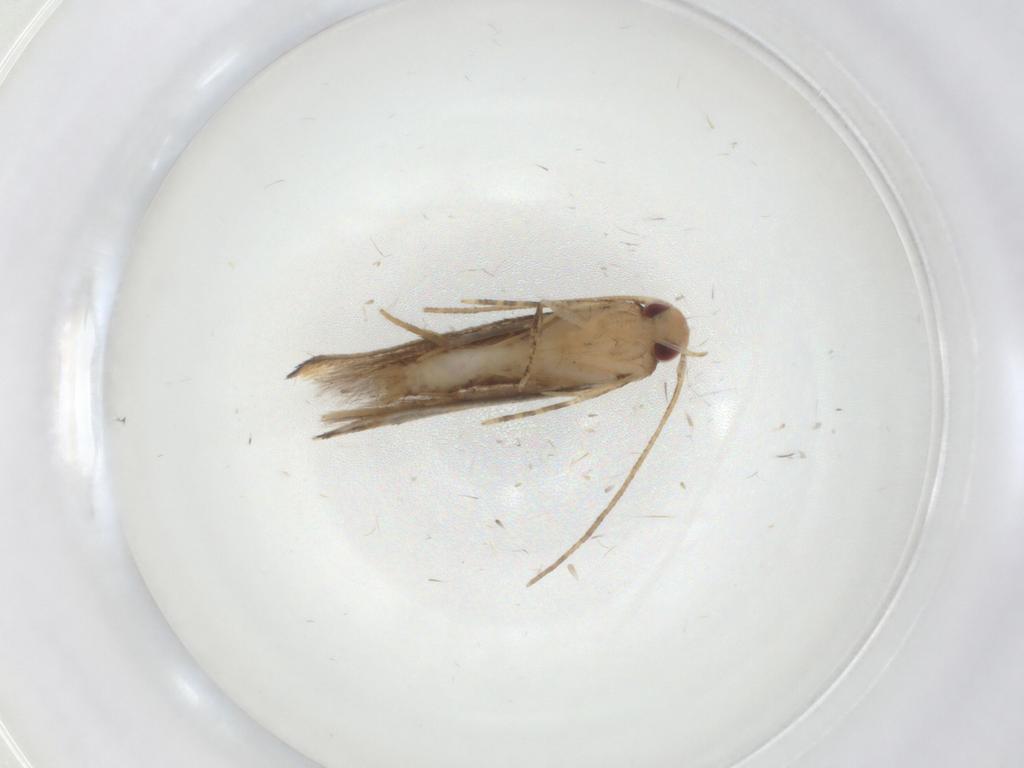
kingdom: Animalia
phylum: Arthropoda
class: Insecta
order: Lepidoptera
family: Momphidae
